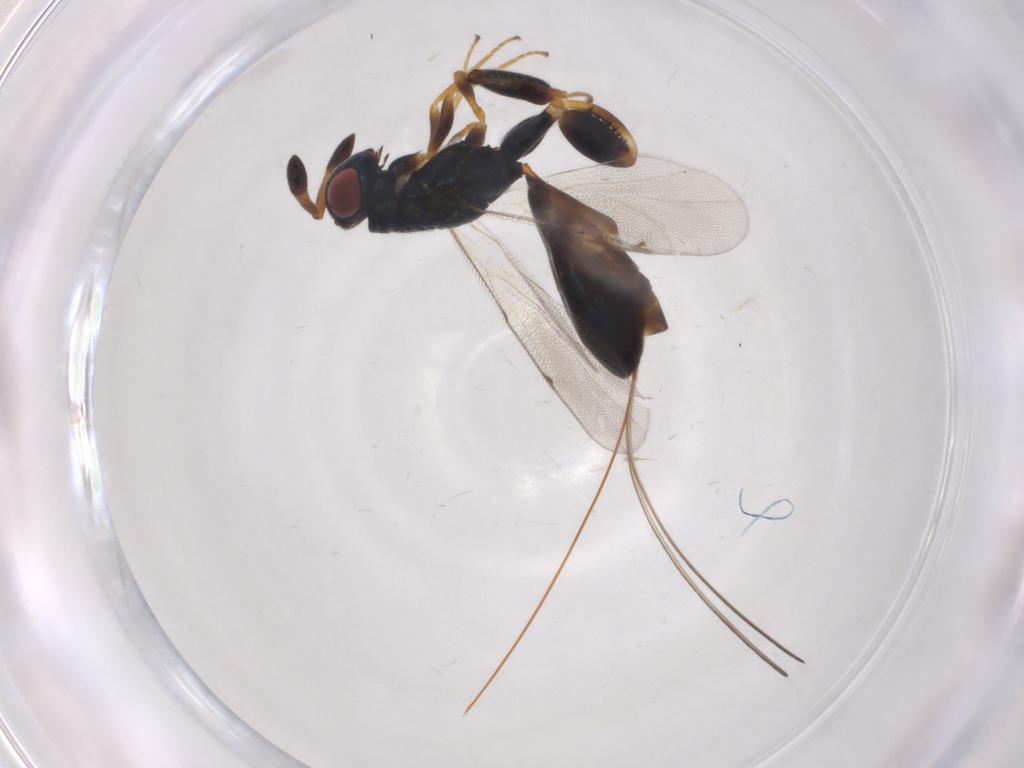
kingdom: Animalia
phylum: Arthropoda
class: Insecta
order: Hymenoptera
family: Torymidae
